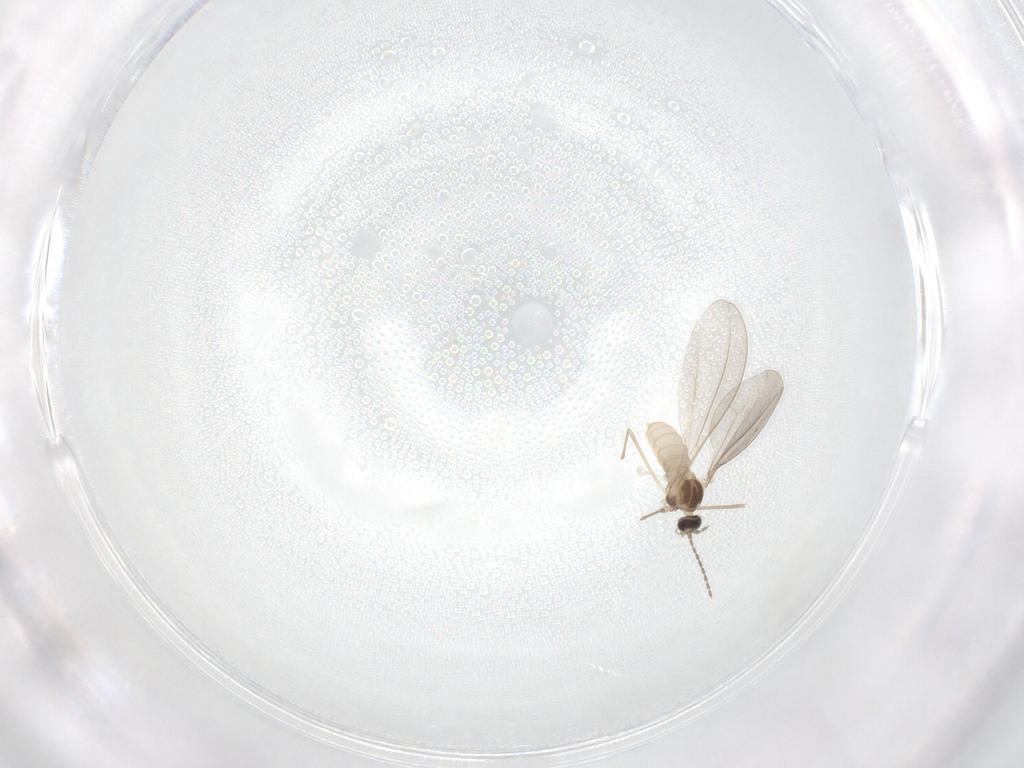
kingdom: Animalia
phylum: Arthropoda
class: Insecta
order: Diptera
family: Cecidomyiidae
